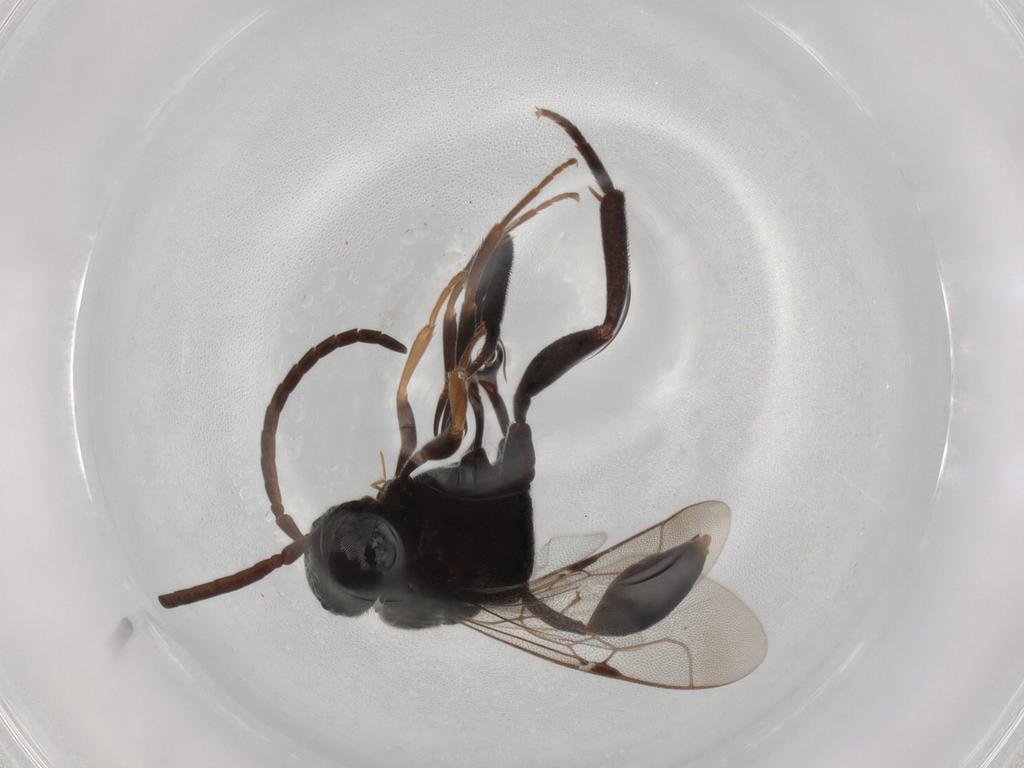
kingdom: Animalia
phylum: Arthropoda
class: Insecta
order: Hymenoptera
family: Evaniidae
